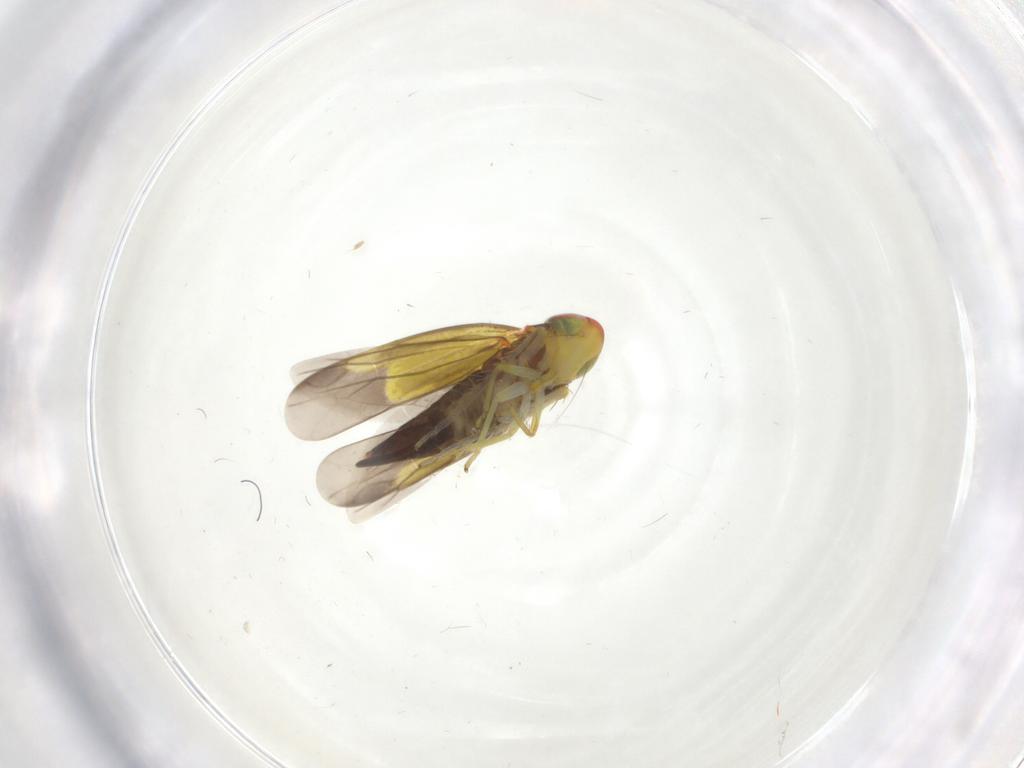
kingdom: Animalia
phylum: Arthropoda
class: Insecta
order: Hemiptera
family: Cicadellidae
